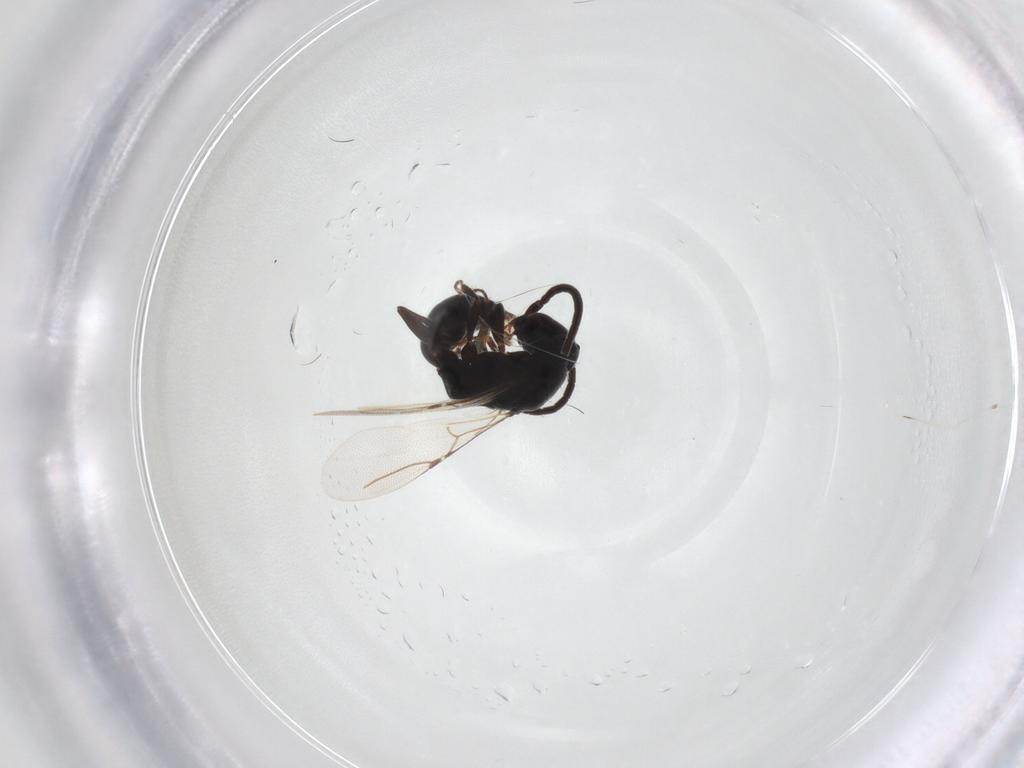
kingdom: Animalia
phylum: Arthropoda
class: Insecta
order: Hymenoptera
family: Bethylidae
